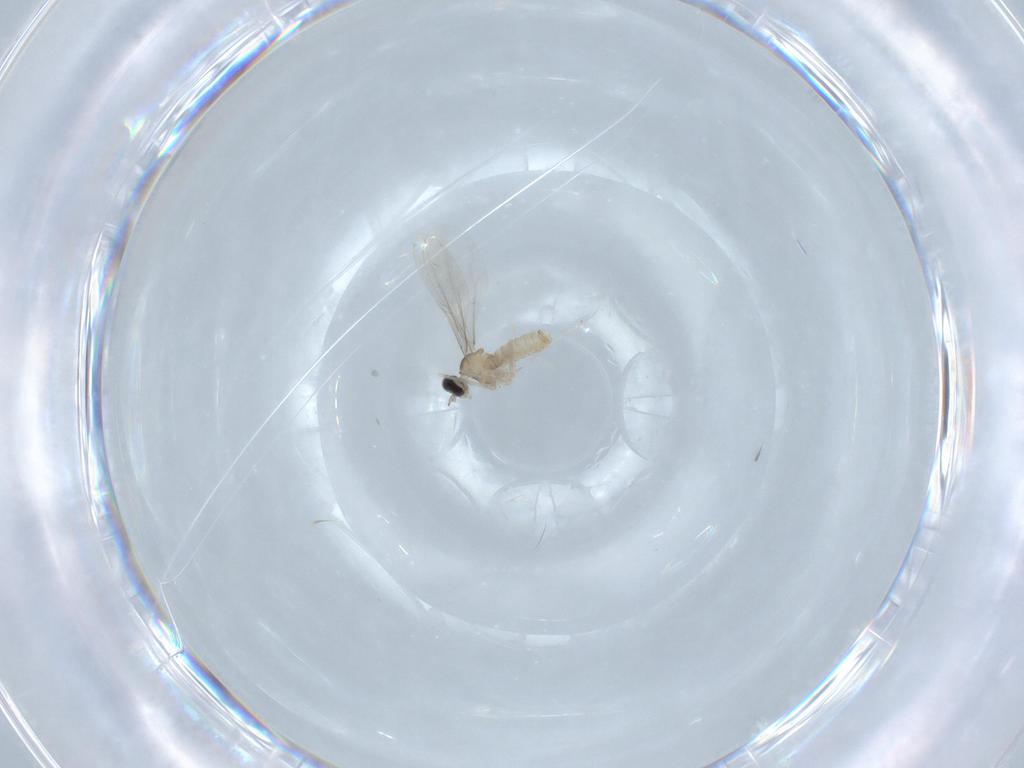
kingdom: Animalia
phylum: Arthropoda
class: Insecta
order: Diptera
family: Cecidomyiidae
